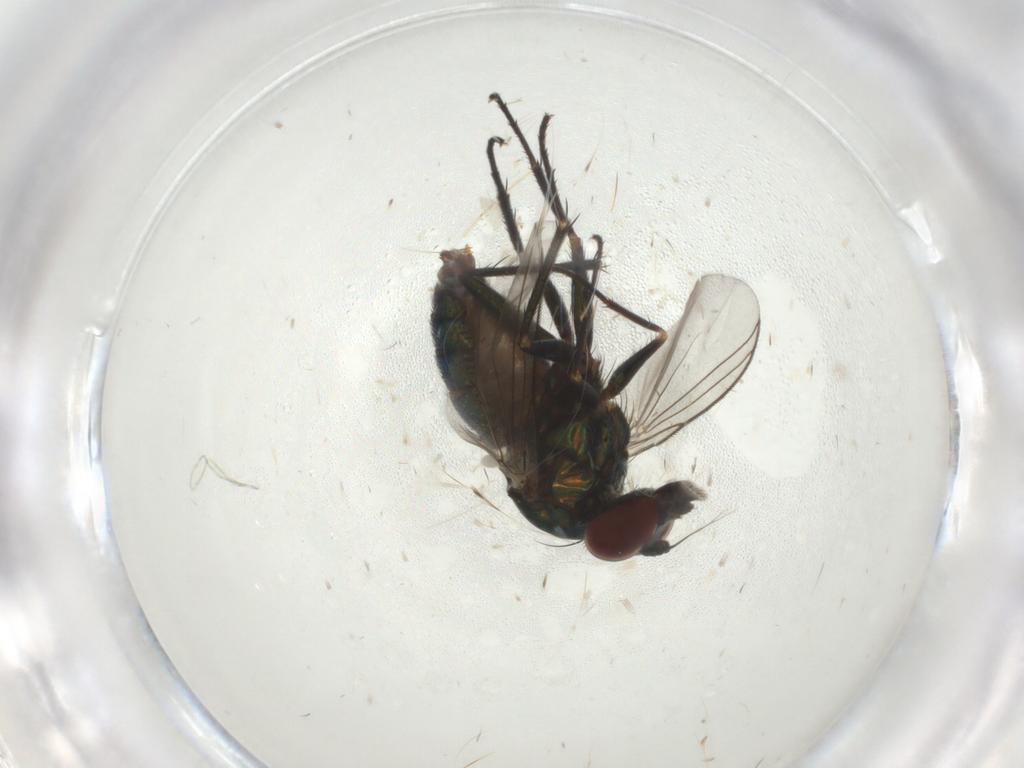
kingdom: Animalia
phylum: Arthropoda
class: Insecta
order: Diptera
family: Dolichopodidae
